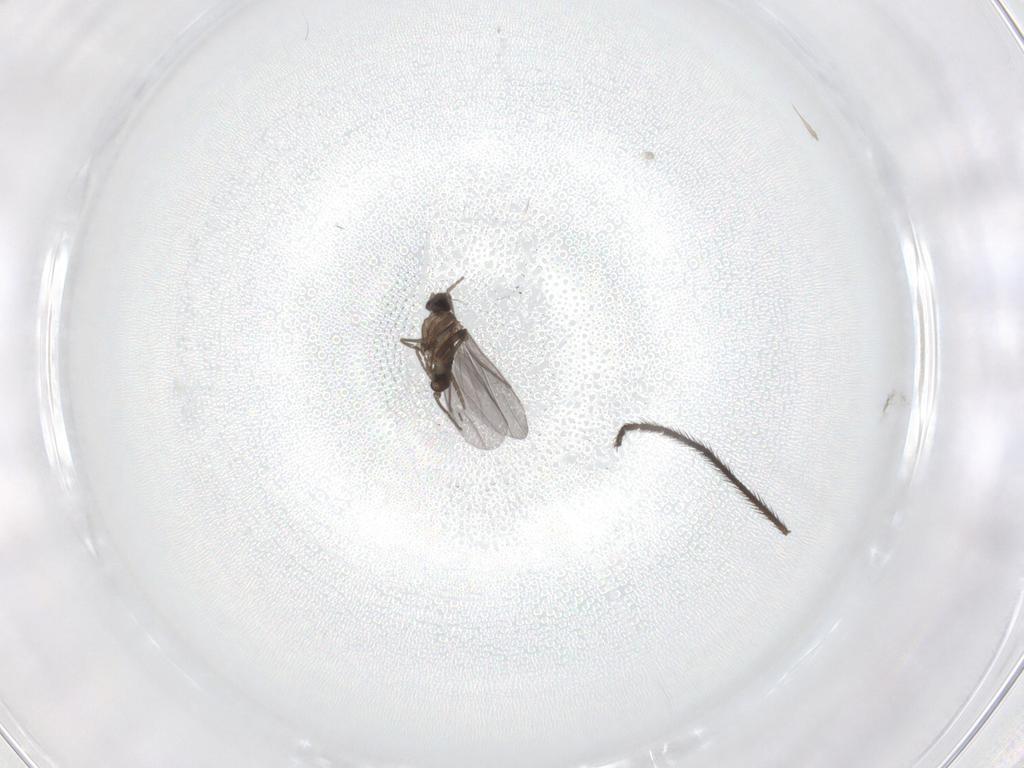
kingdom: Animalia
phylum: Arthropoda
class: Insecta
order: Diptera
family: Phoridae
